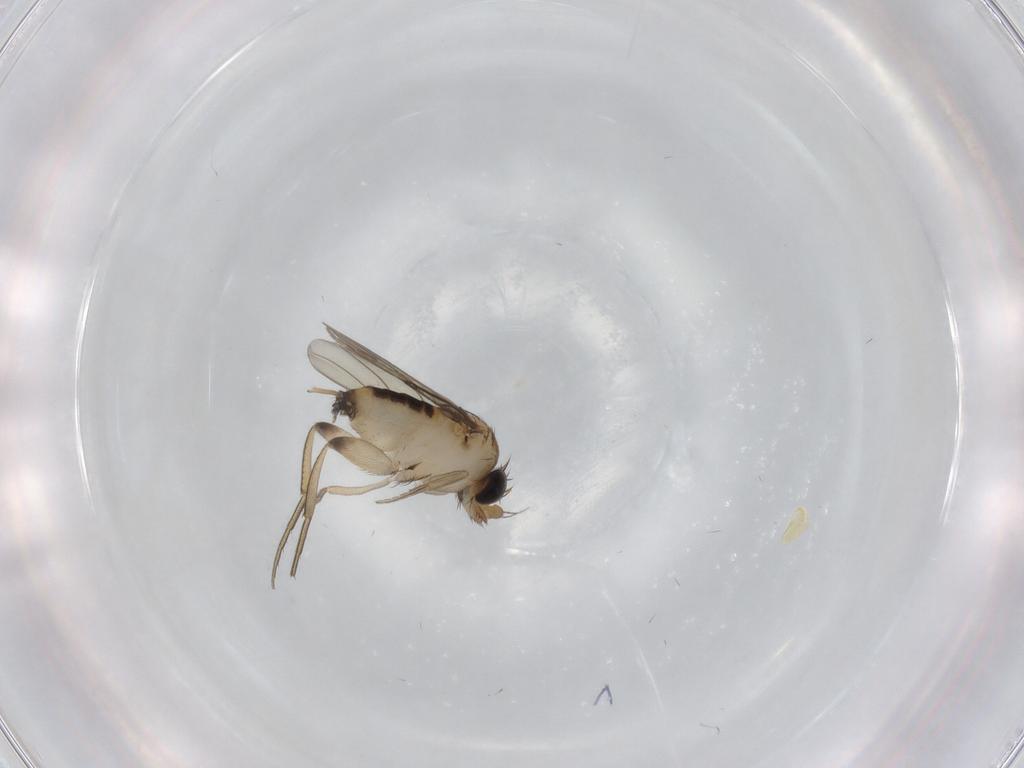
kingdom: Animalia
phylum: Arthropoda
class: Insecta
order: Diptera
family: Phoridae
